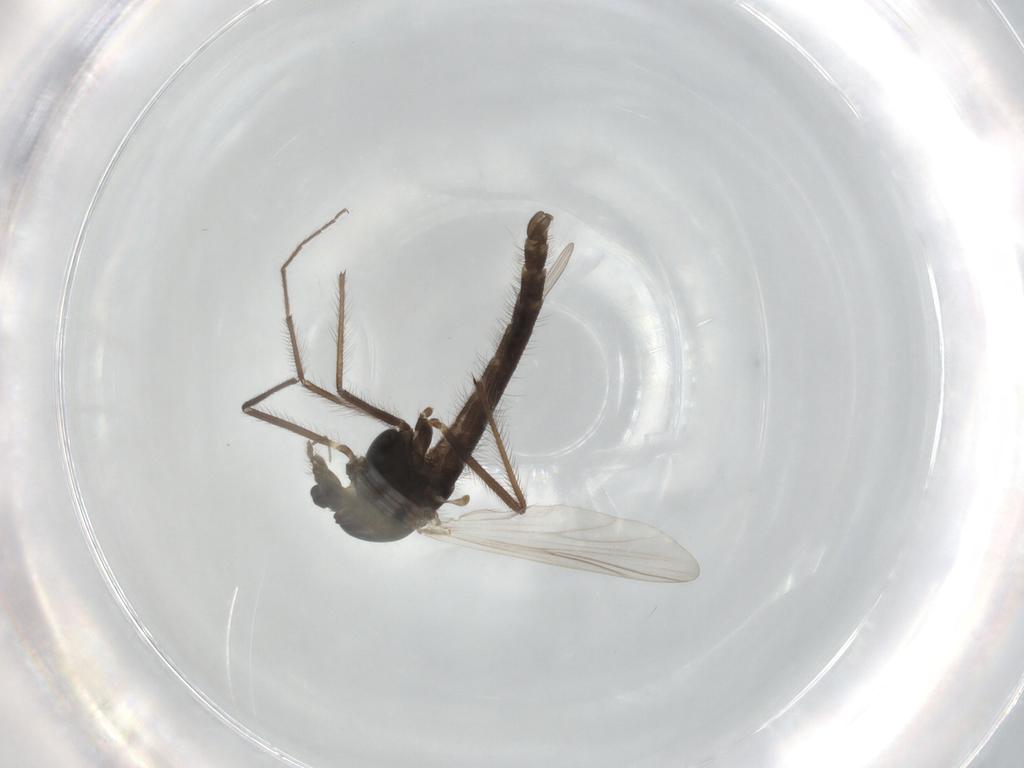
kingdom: Animalia
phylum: Arthropoda
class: Insecta
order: Diptera
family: Chironomidae
